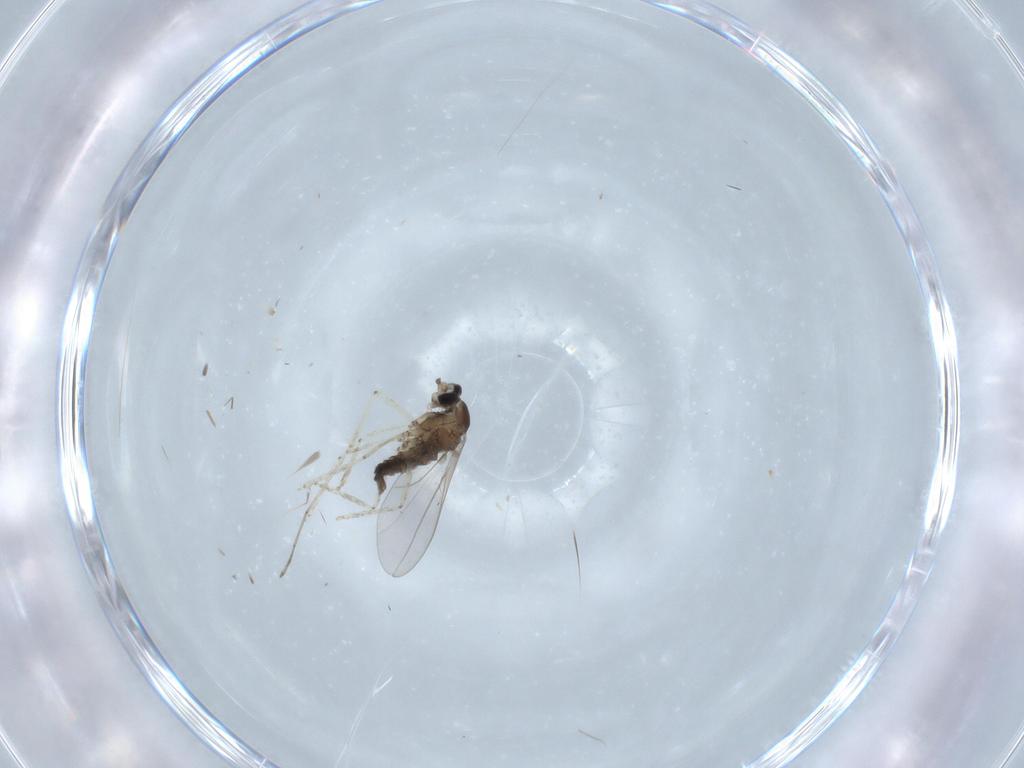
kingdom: Animalia
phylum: Arthropoda
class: Insecta
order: Diptera
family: Cecidomyiidae
